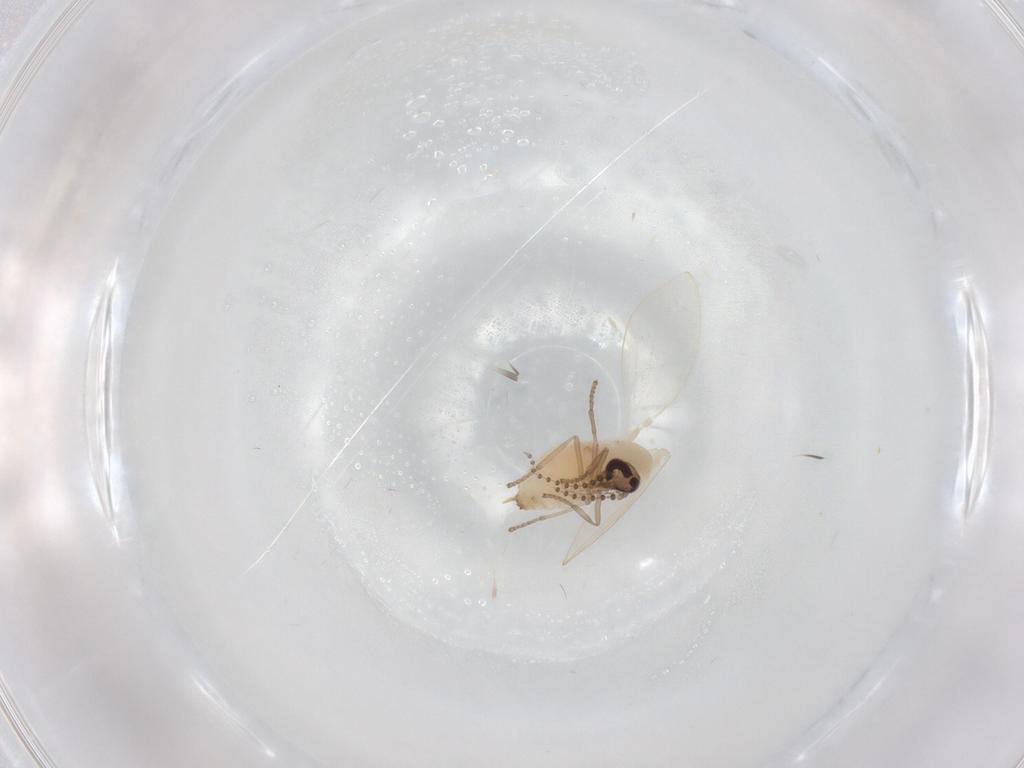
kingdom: Animalia
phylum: Arthropoda
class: Insecta
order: Diptera
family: Psychodidae
